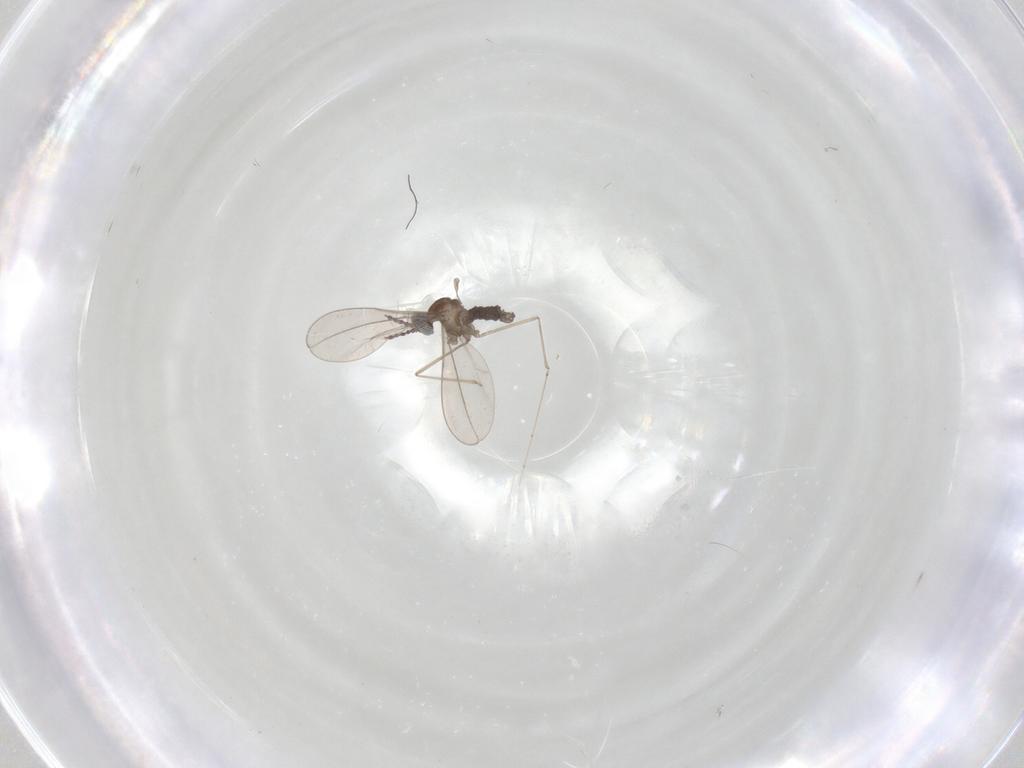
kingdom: Animalia
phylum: Arthropoda
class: Insecta
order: Diptera
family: Cecidomyiidae
